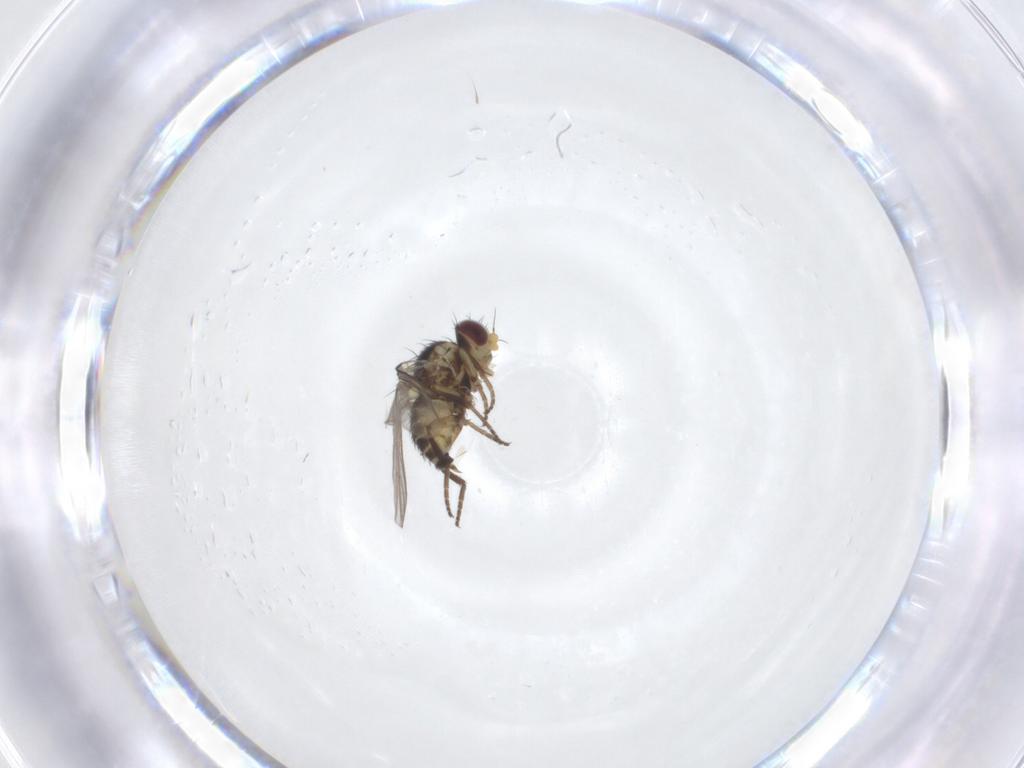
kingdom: Animalia
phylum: Arthropoda
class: Insecta
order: Diptera
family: Agromyzidae
